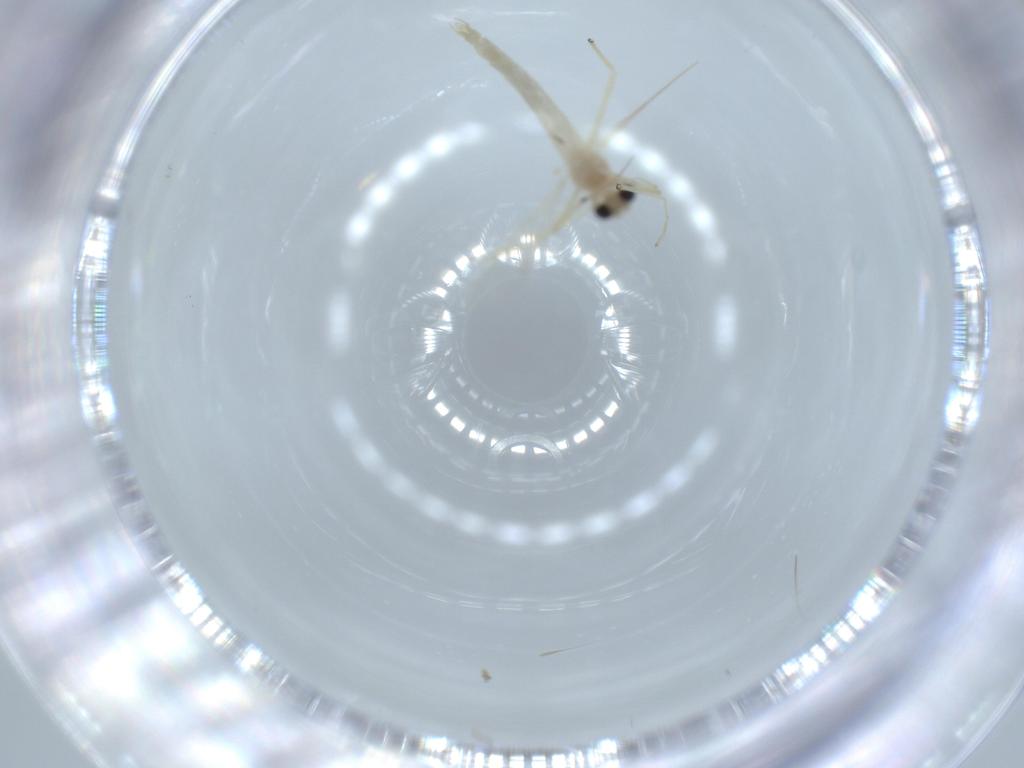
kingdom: Animalia
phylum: Arthropoda
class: Insecta
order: Diptera
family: Chironomidae
